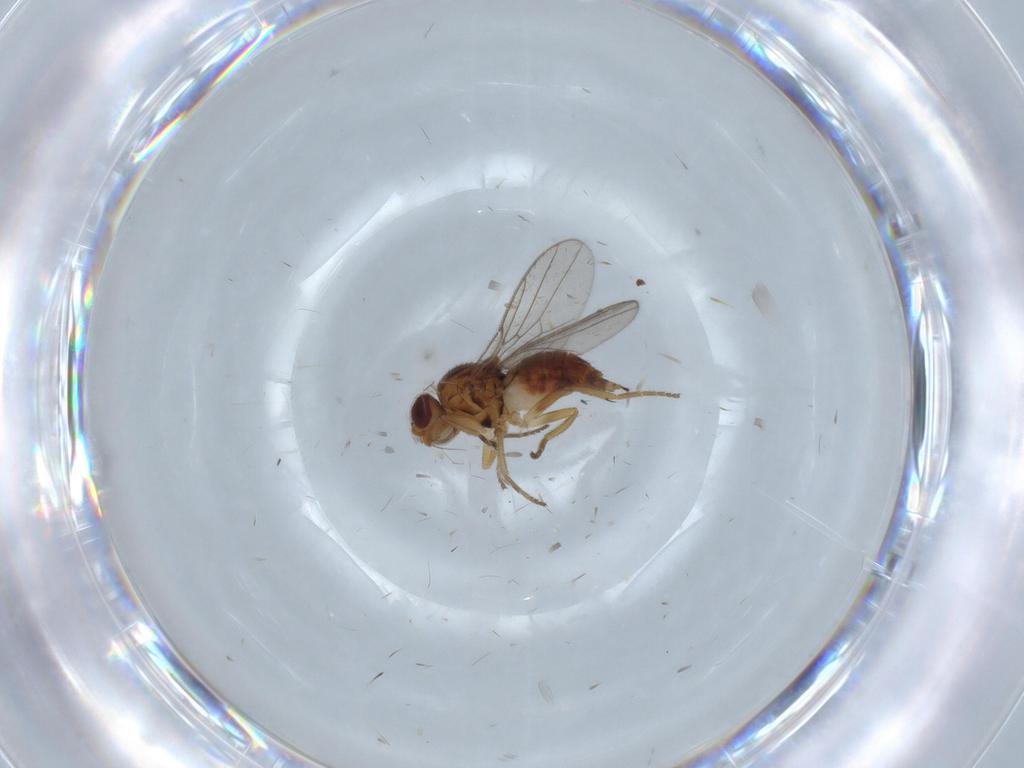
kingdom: Animalia
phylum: Arthropoda
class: Insecta
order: Diptera
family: Chloropidae
